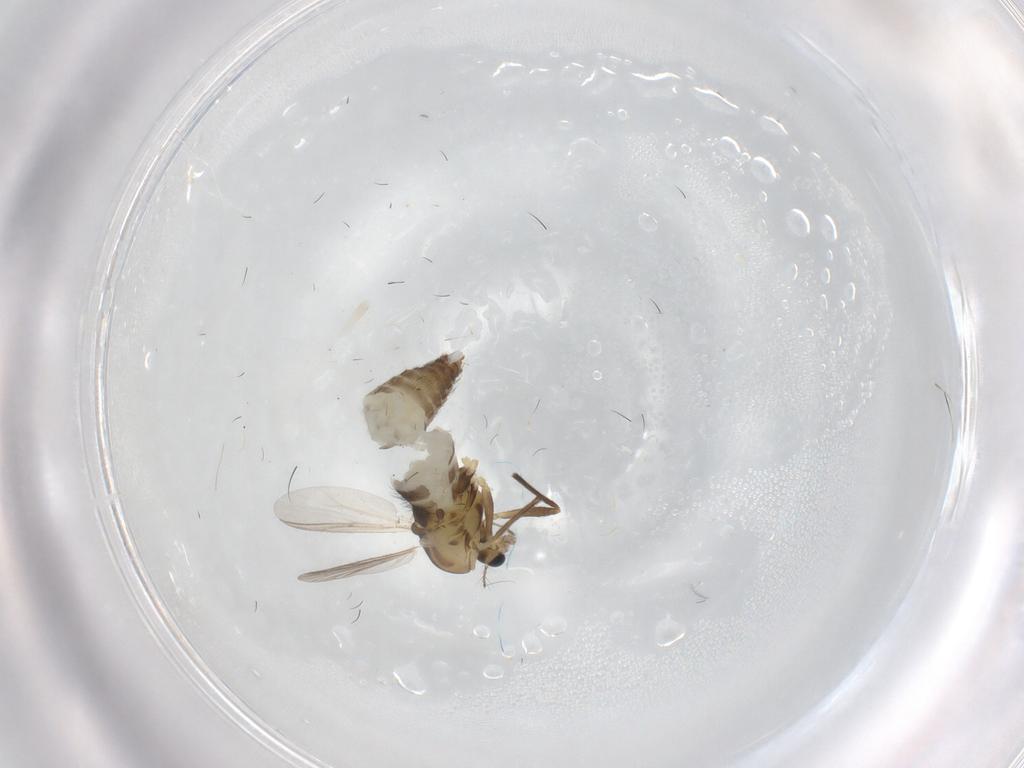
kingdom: Animalia
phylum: Arthropoda
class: Insecta
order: Diptera
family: Chironomidae
